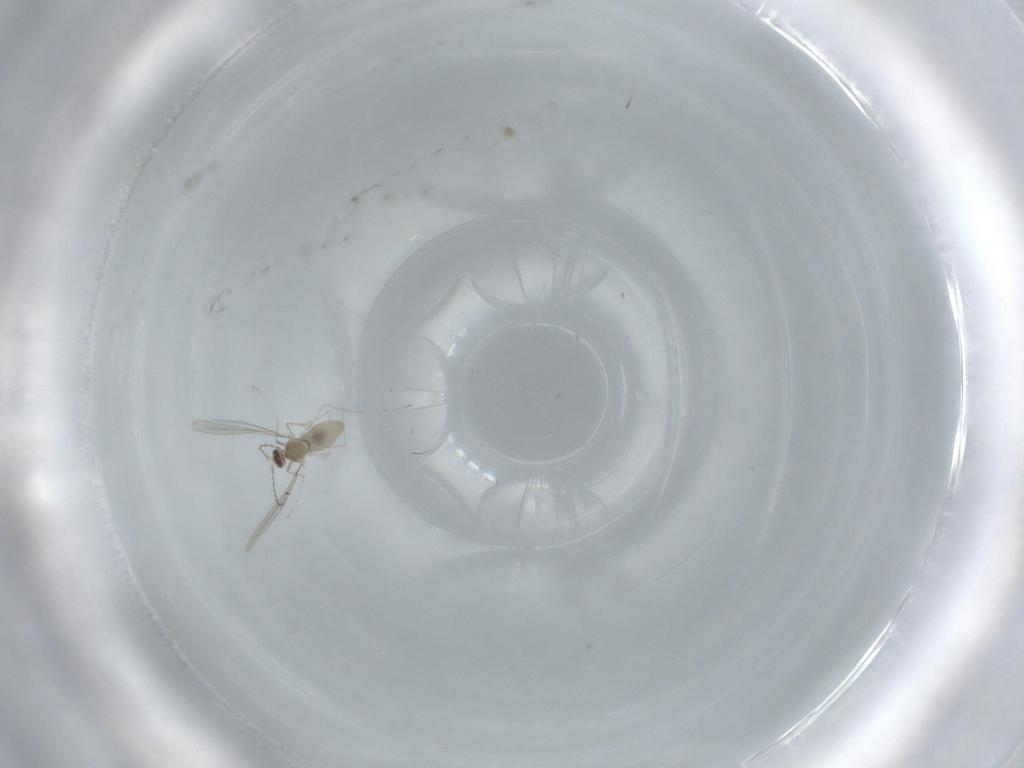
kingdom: Animalia
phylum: Arthropoda
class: Insecta
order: Diptera
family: Cecidomyiidae
